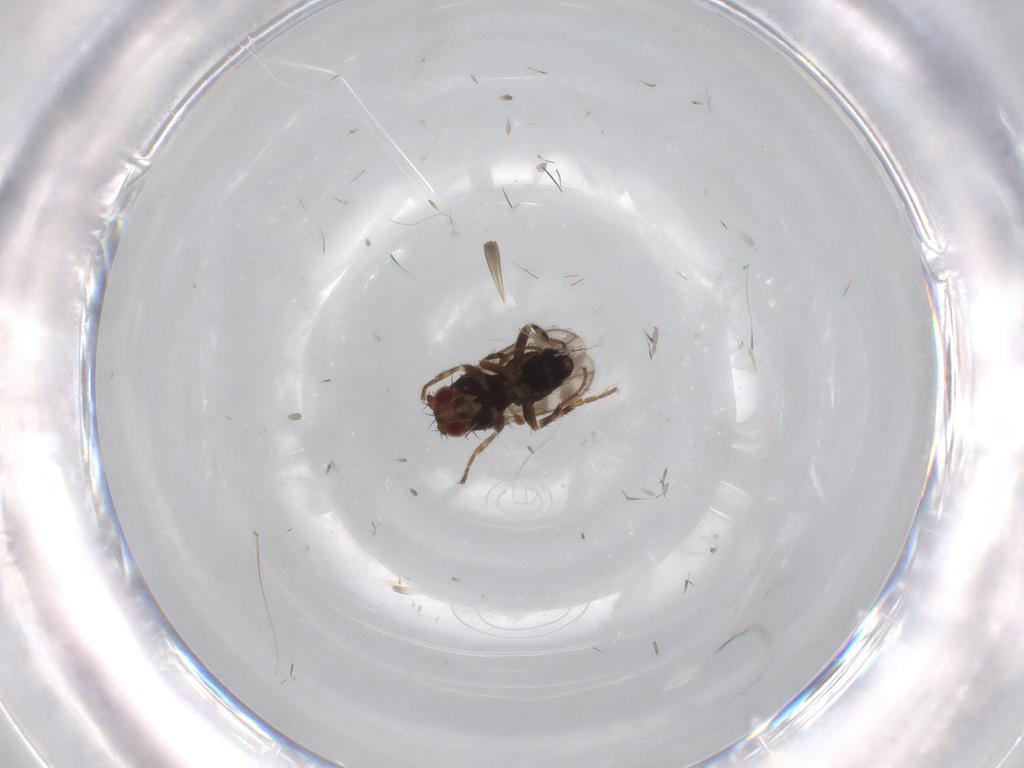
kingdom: Animalia
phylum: Arthropoda
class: Insecta
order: Diptera
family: Sphaeroceridae
